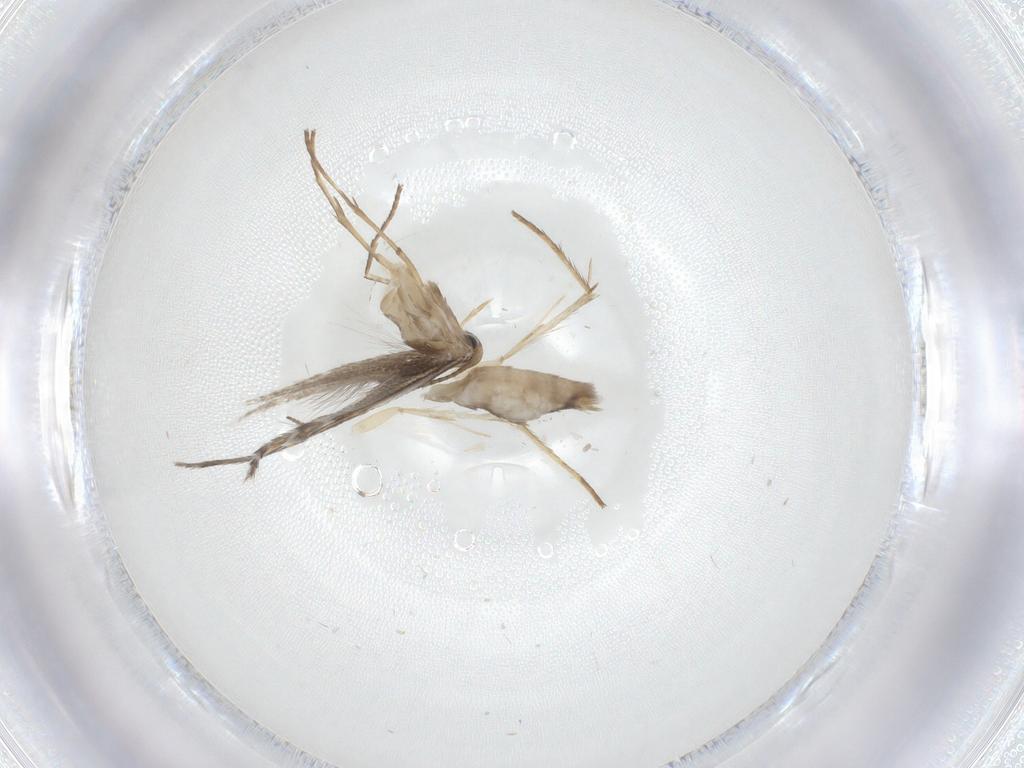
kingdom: Animalia
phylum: Arthropoda
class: Insecta
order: Lepidoptera
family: Gracillariidae
